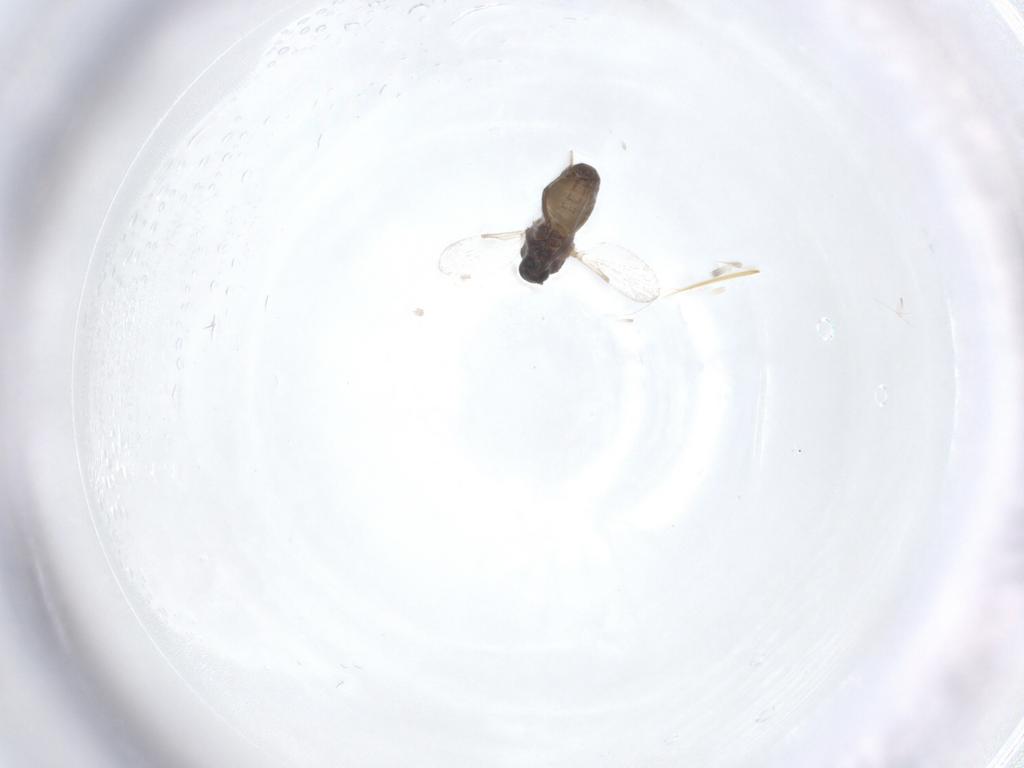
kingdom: Animalia
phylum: Arthropoda
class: Insecta
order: Diptera
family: Ceratopogonidae
